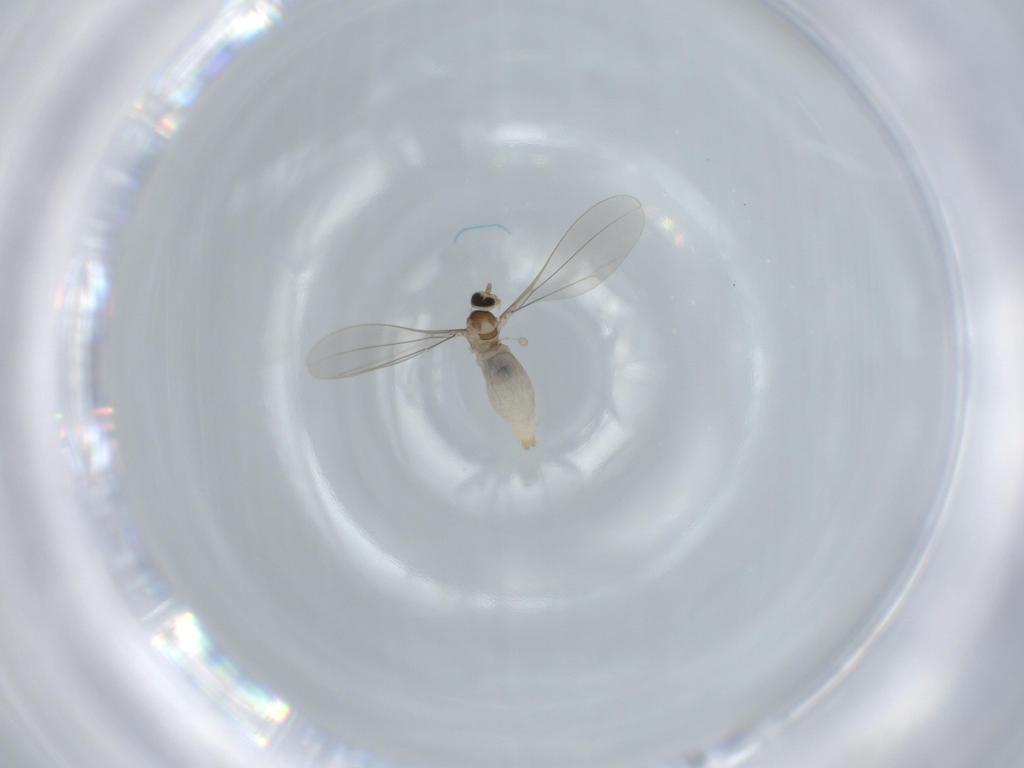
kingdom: Animalia
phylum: Arthropoda
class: Insecta
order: Diptera
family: Cecidomyiidae
